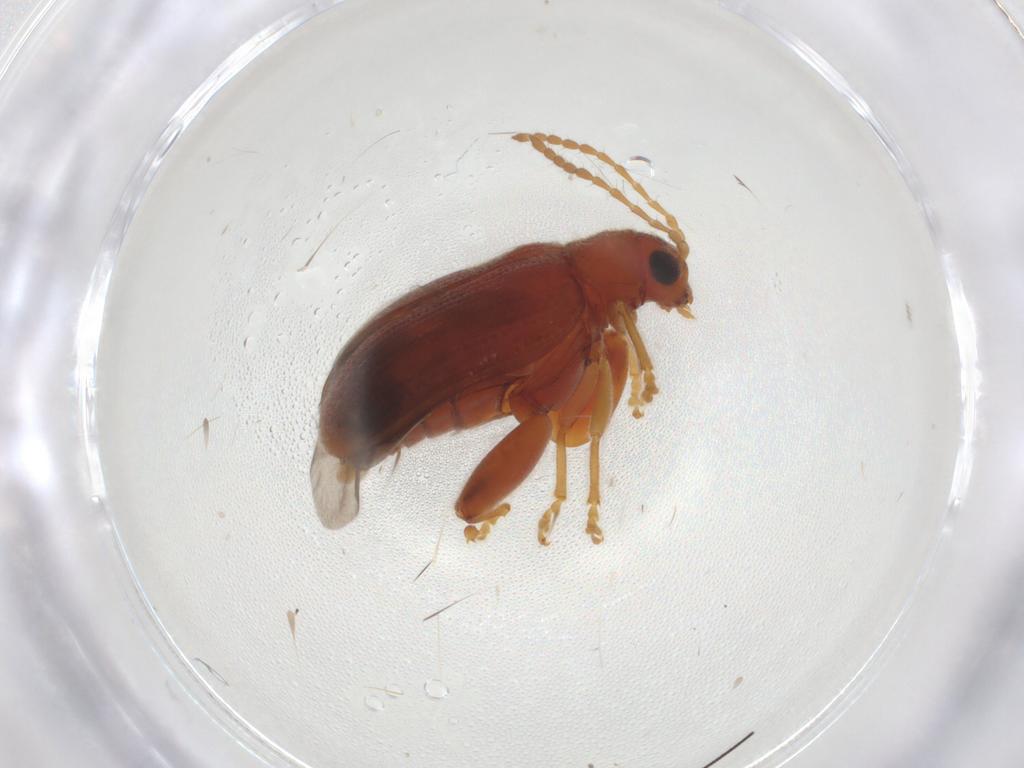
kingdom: Animalia
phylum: Arthropoda
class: Insecta
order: Coleoptera
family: Chrysomelidae
